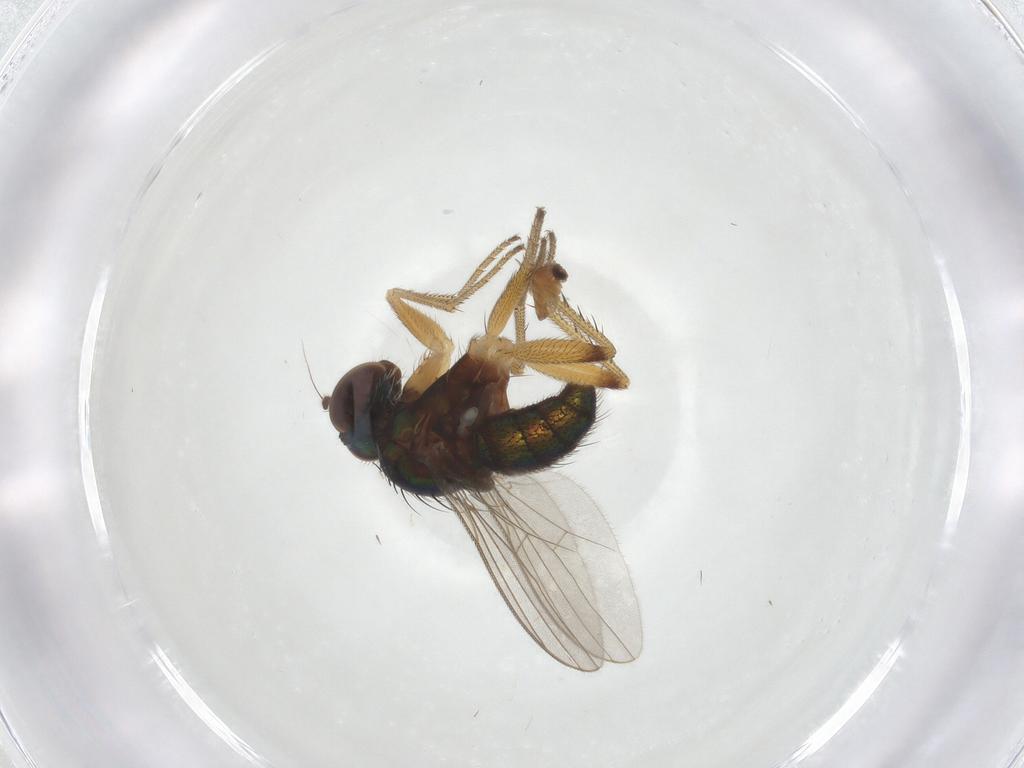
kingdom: Animalia
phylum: Arthropoda
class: Insecta
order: Diptera
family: Cecidomyiidae
